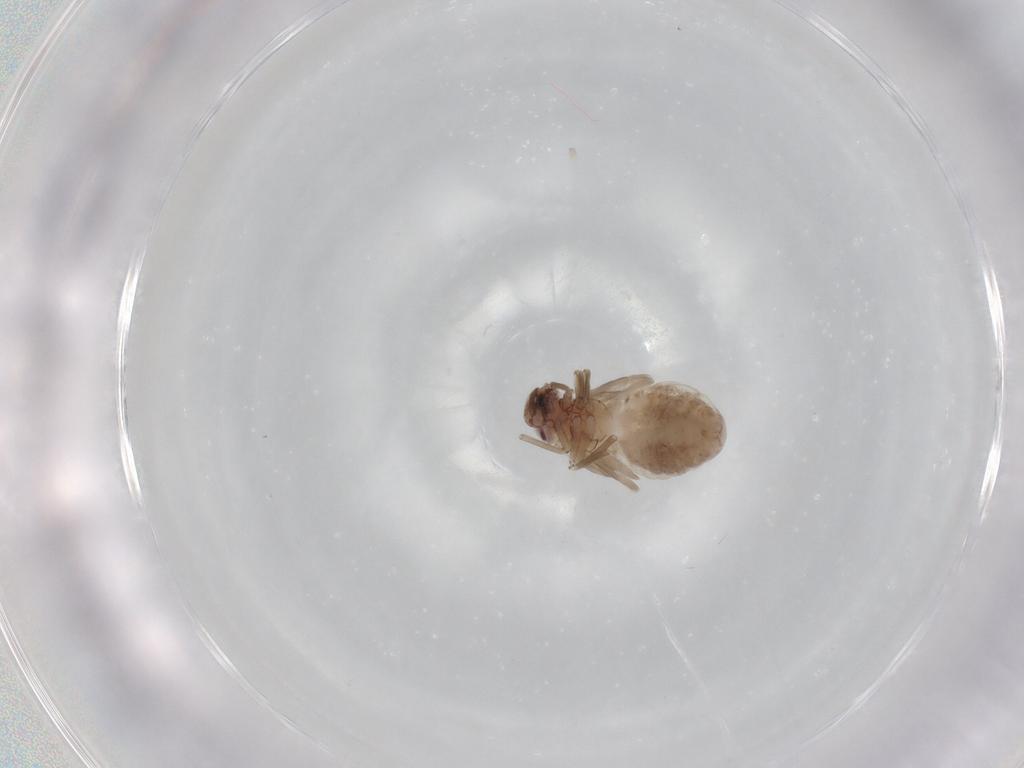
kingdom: Animalia
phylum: Arthropoda
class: Insecta
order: Psocodea
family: Peripsocidae
